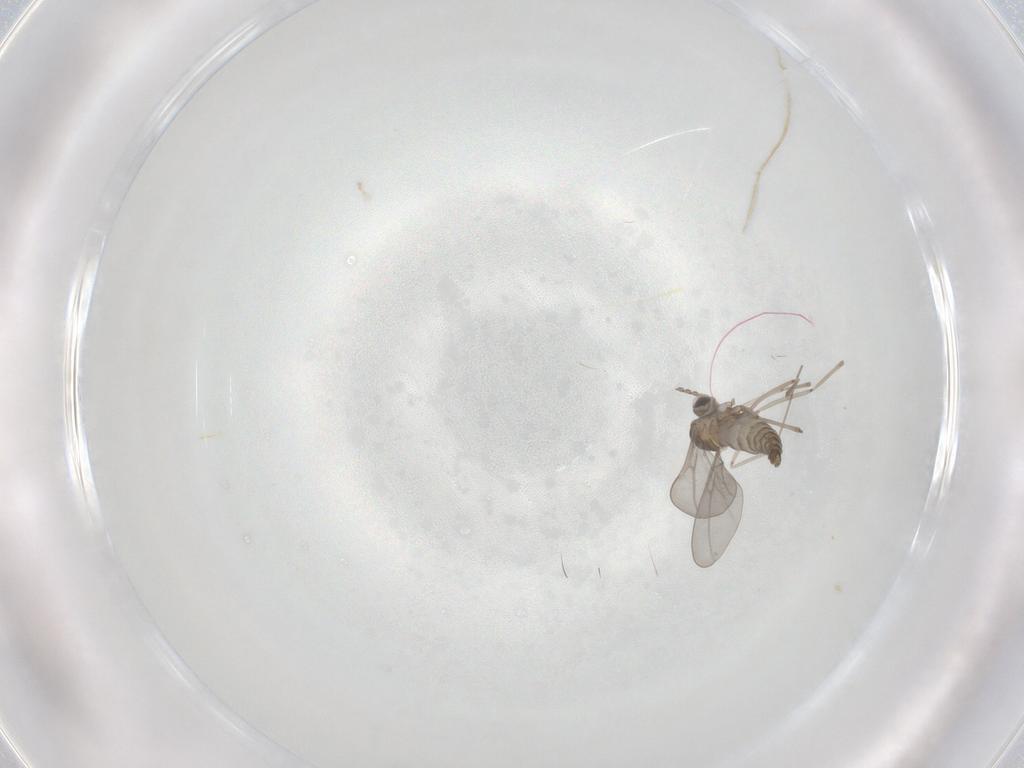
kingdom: Animalia
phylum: Arthropoda
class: Insecta
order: Diptera
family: Cecidomyiidae
